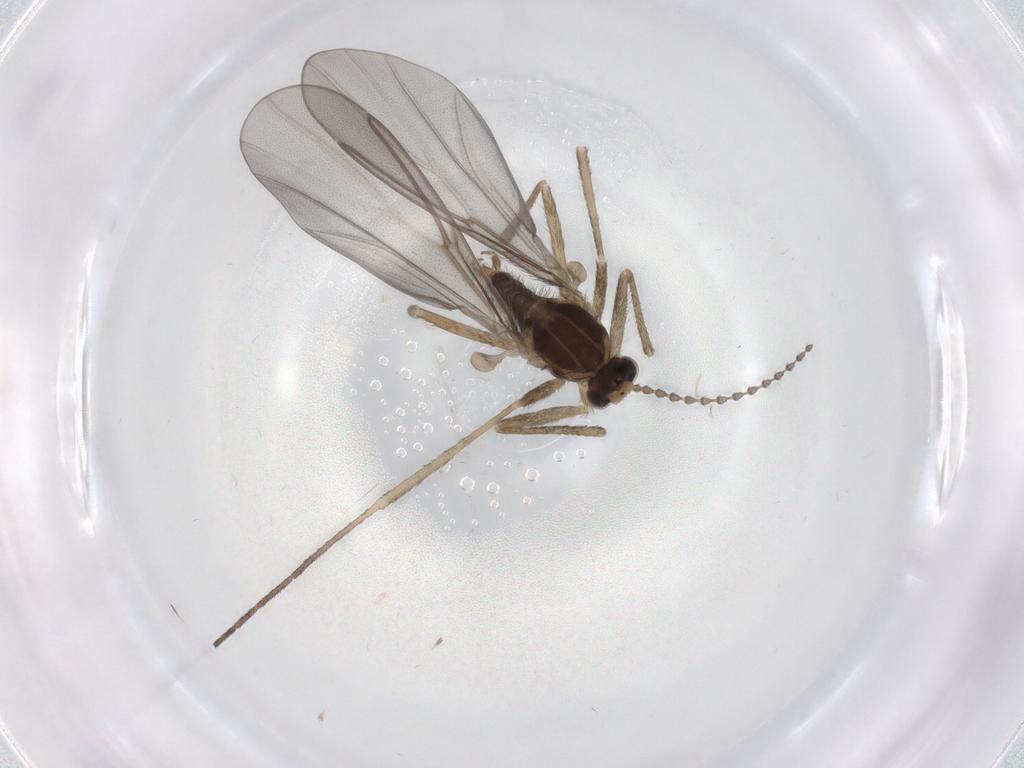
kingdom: Animalia
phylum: Arthropoda
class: Insecta
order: Diptera
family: Cecidomyiidae
